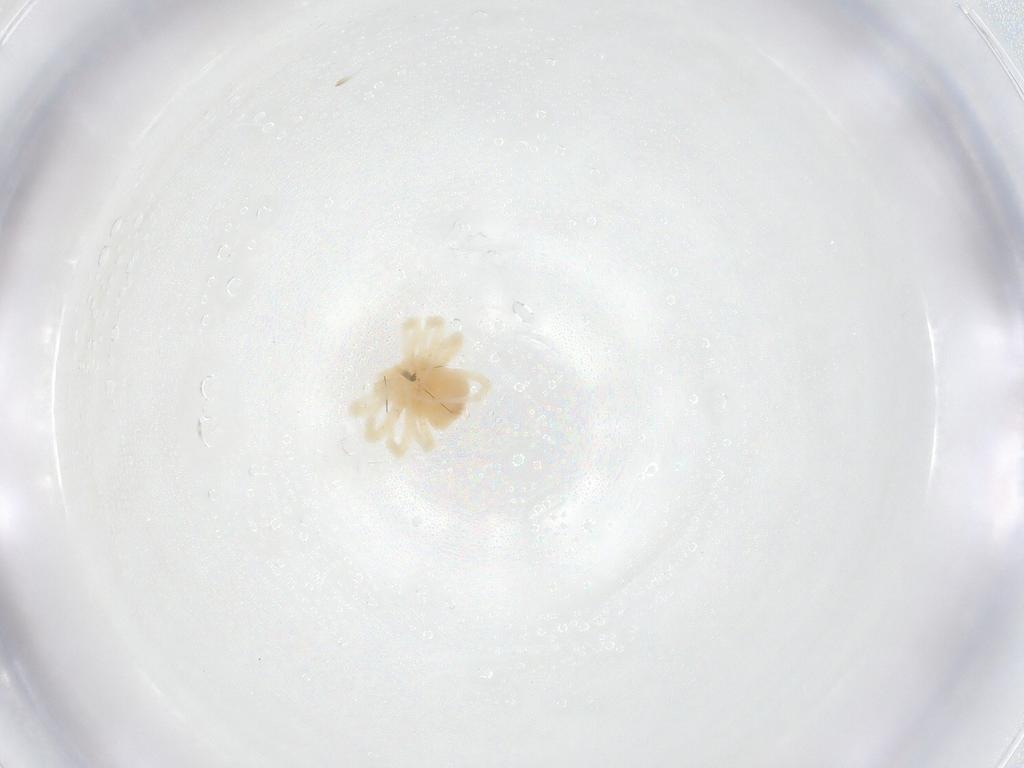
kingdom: Animalia
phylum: Arthropoda
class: Arachnida
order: Trombidiformes
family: Anystidae
